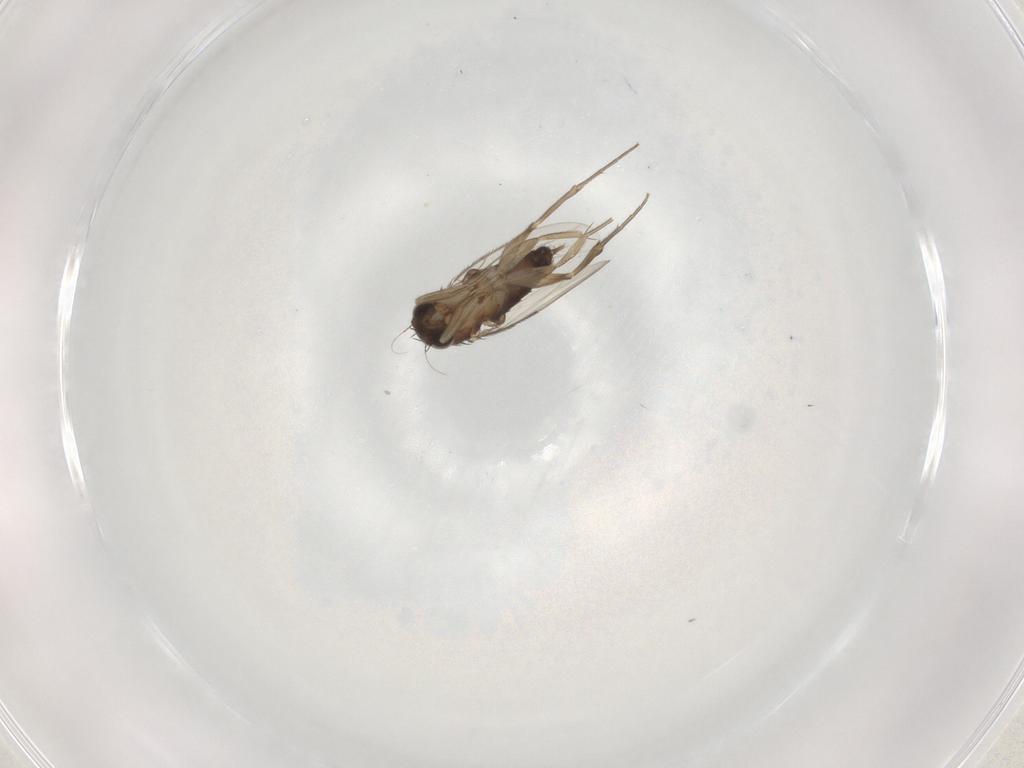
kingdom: Animalia
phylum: Arthropoda
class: Insecta
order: Diptera
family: Phoridae
